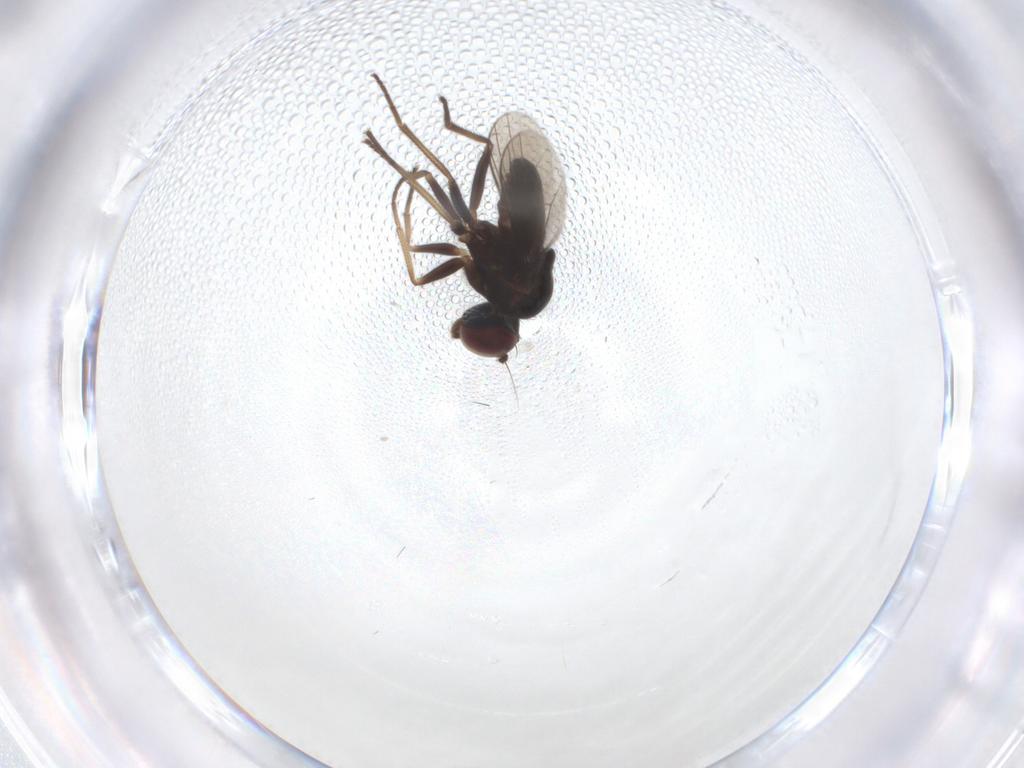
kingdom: Animalia
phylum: Arthropoda
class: Insecta
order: Diptera
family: Dolichopodidae
